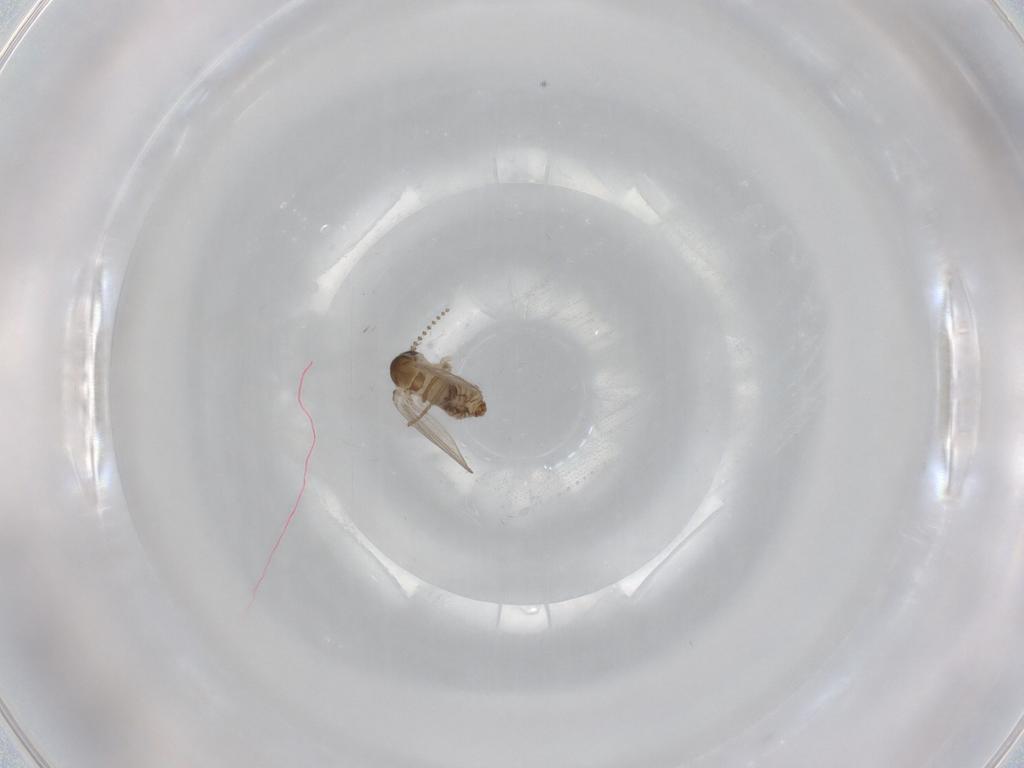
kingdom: Animalia
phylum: Arthropoda
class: Insecta
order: Diptera
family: Psychodidae
